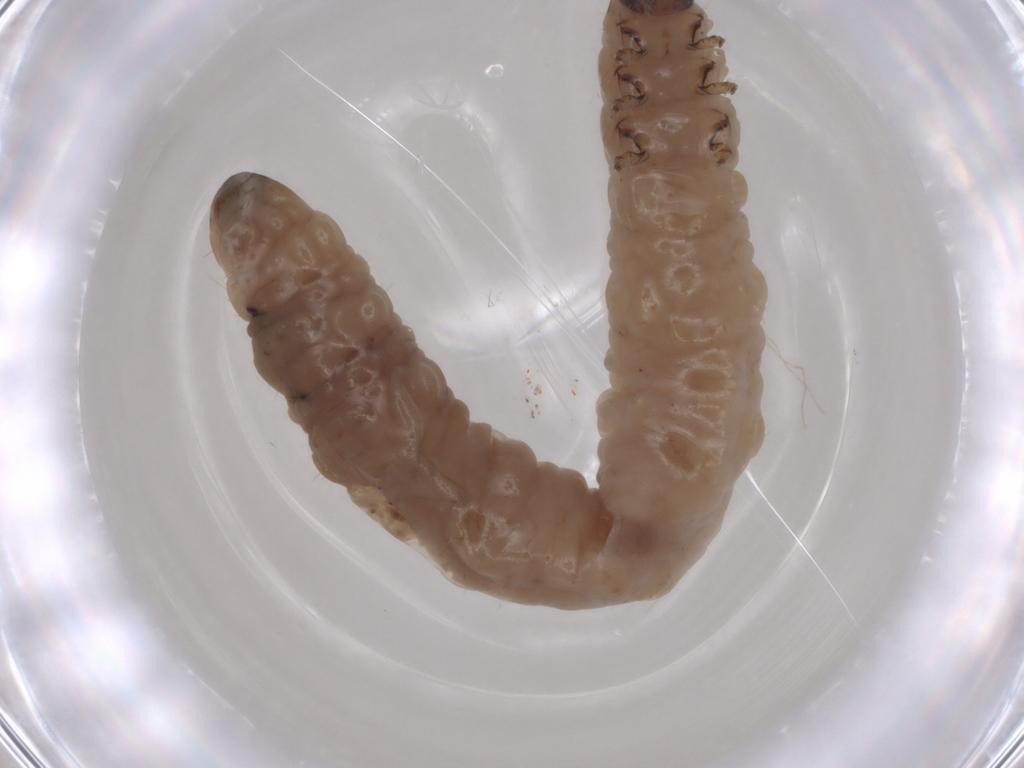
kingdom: Animalia
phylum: Arthropoda
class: Insecta
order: Coleoptera
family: Chrysomelidae
